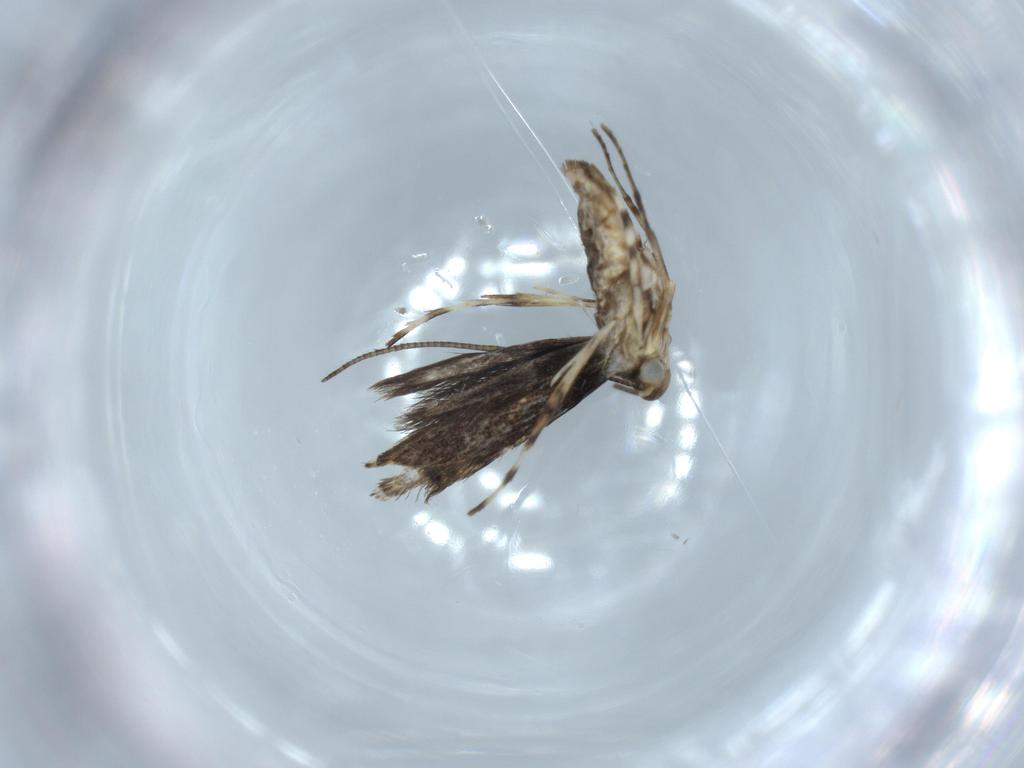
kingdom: Animalia
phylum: Arthropoda
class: Insecta
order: Lepidoptera
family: Gracillariidae
